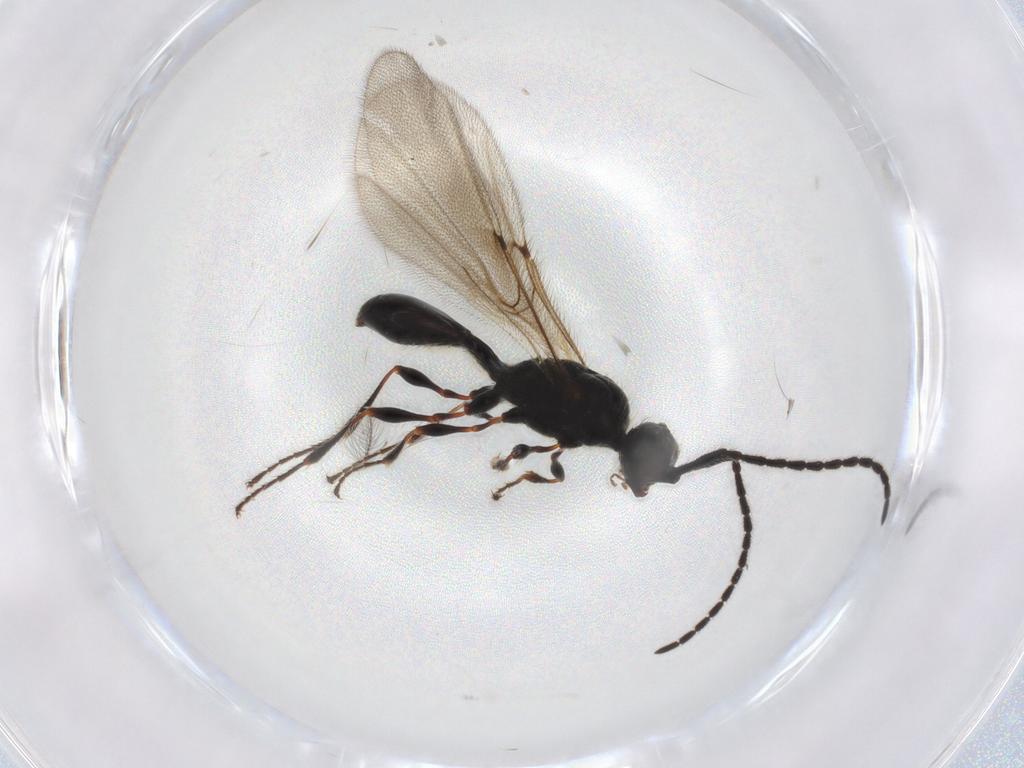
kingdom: Animalia
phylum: Arthropoda
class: Insecta
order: Hymenoptera
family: Diapriidae
